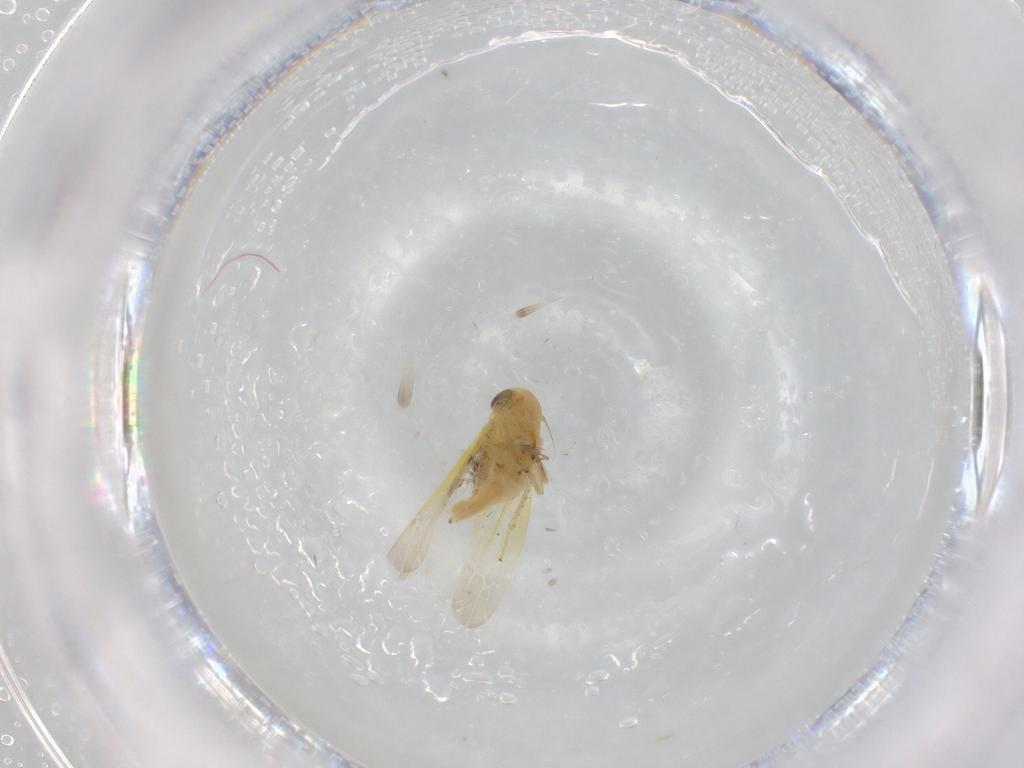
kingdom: Animalia
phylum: Arthropoda
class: Insecta
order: Hemiptera
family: Cicadellidae
